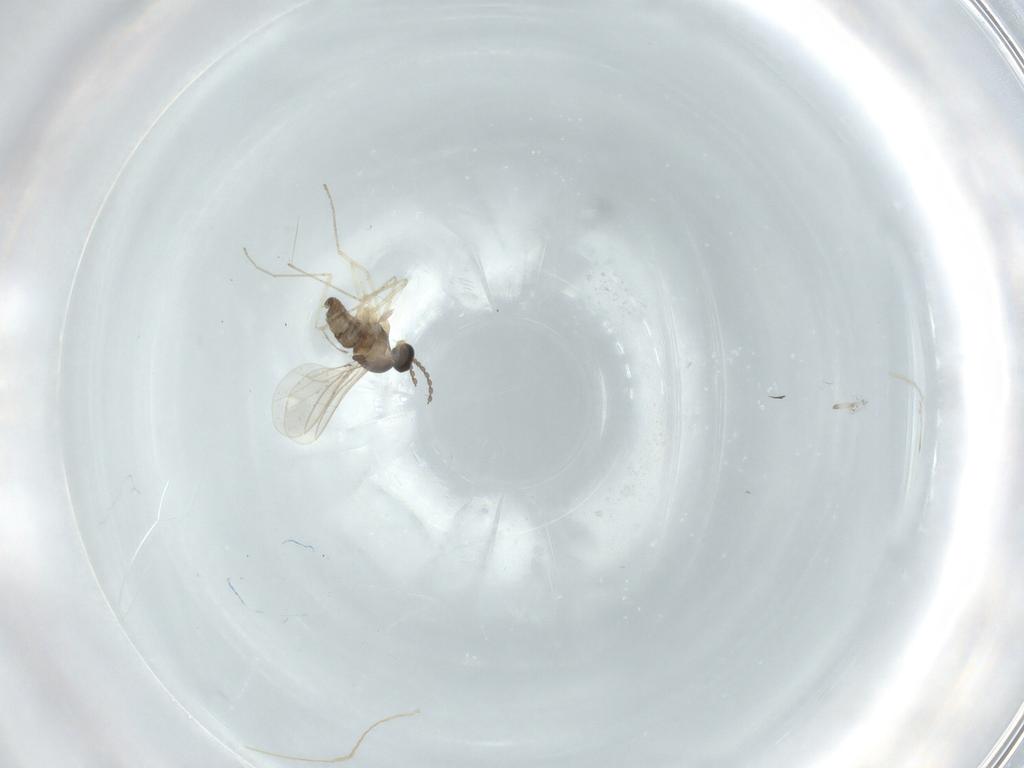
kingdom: Animalia
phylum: Arthropoda
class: Insecta
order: Diptera
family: Cecidomyiidae
